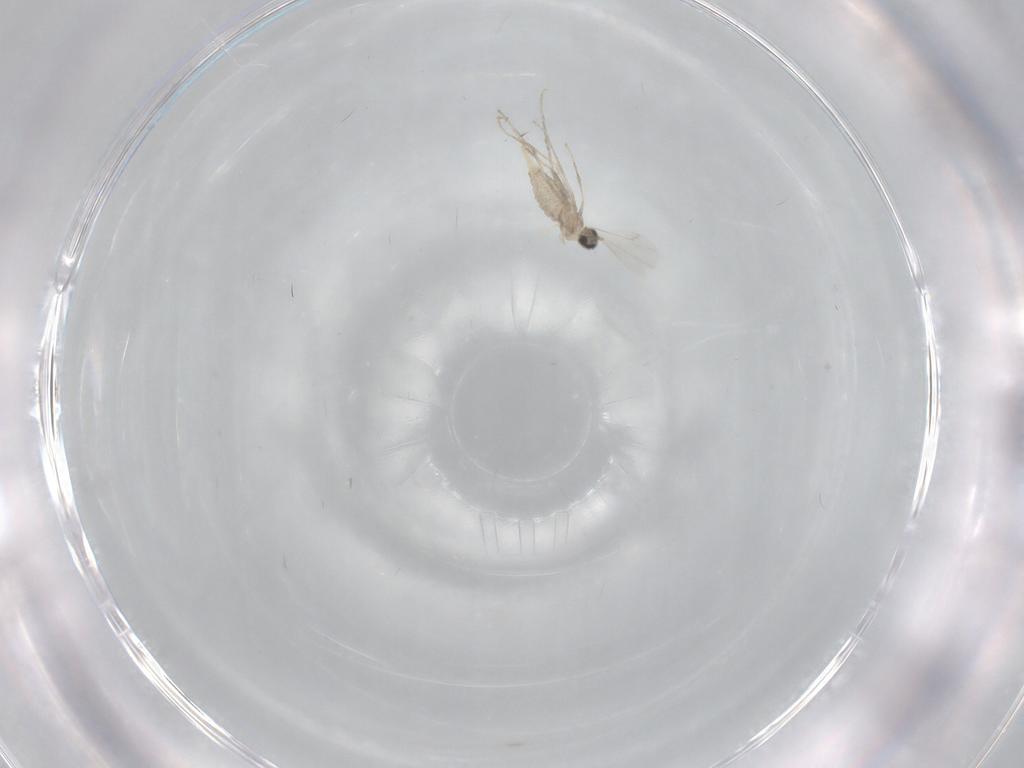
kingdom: Animalia
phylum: Arthropoda
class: Insecta
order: Diptera
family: Cecidomyiidae
